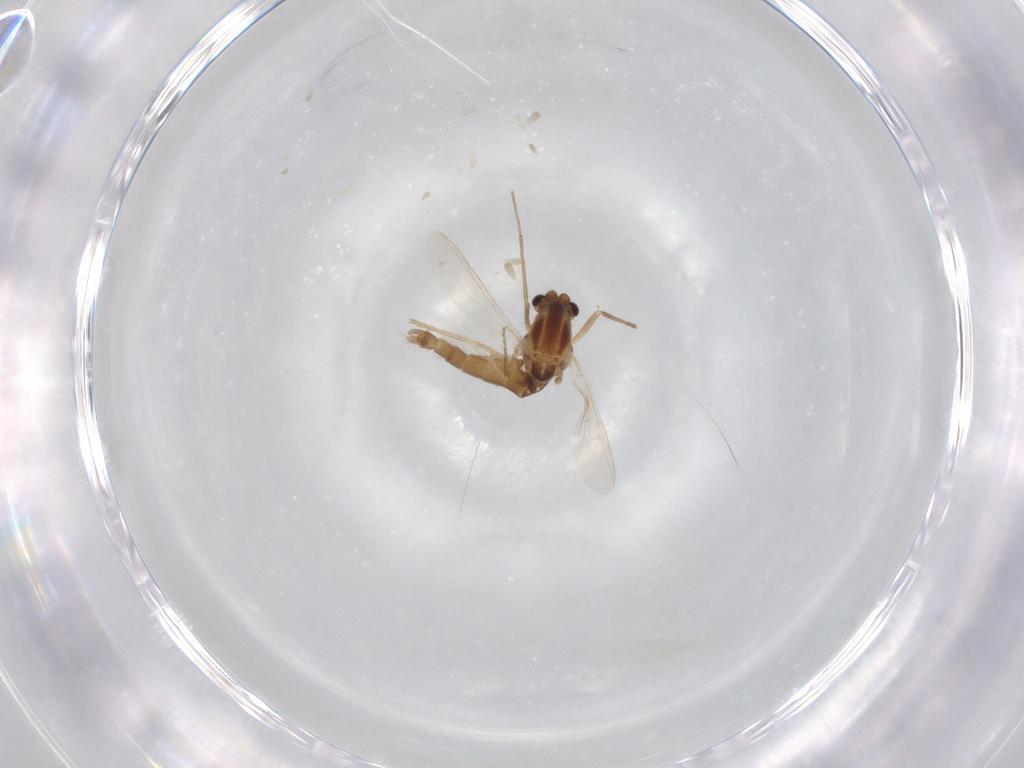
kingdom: Animalia
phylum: Arthropoda
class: Insecta
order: Diptera
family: Chironomidae
